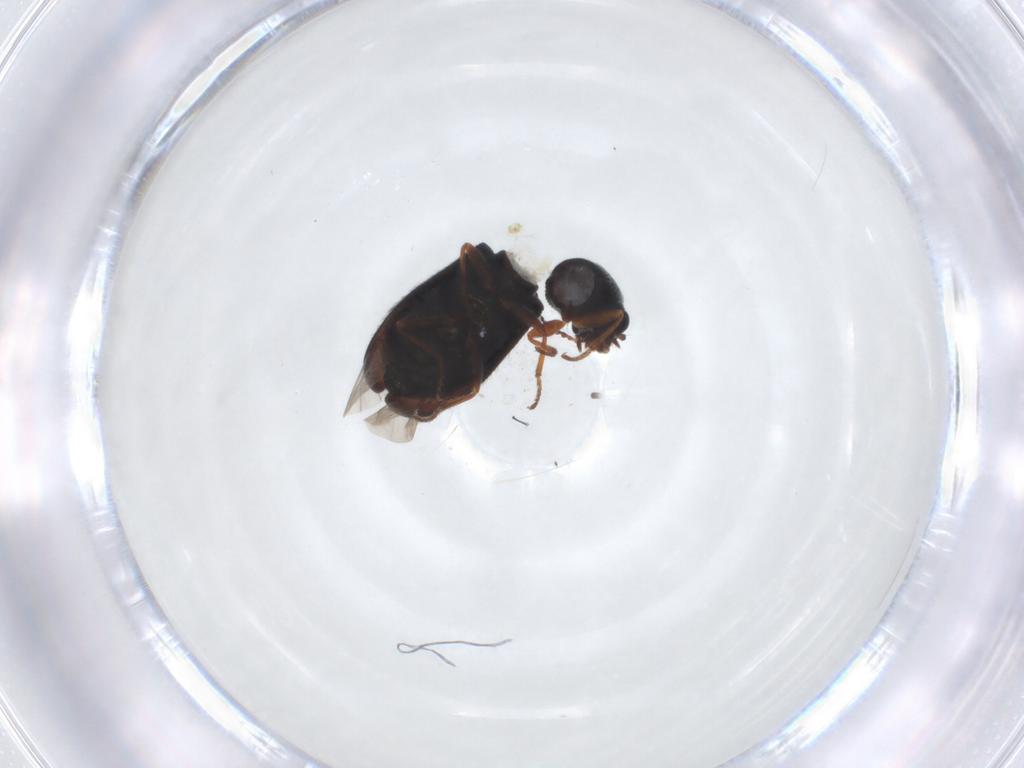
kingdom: Animalia
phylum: Arthropoda
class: Insecta
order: Coleoptera
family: Melyridae
